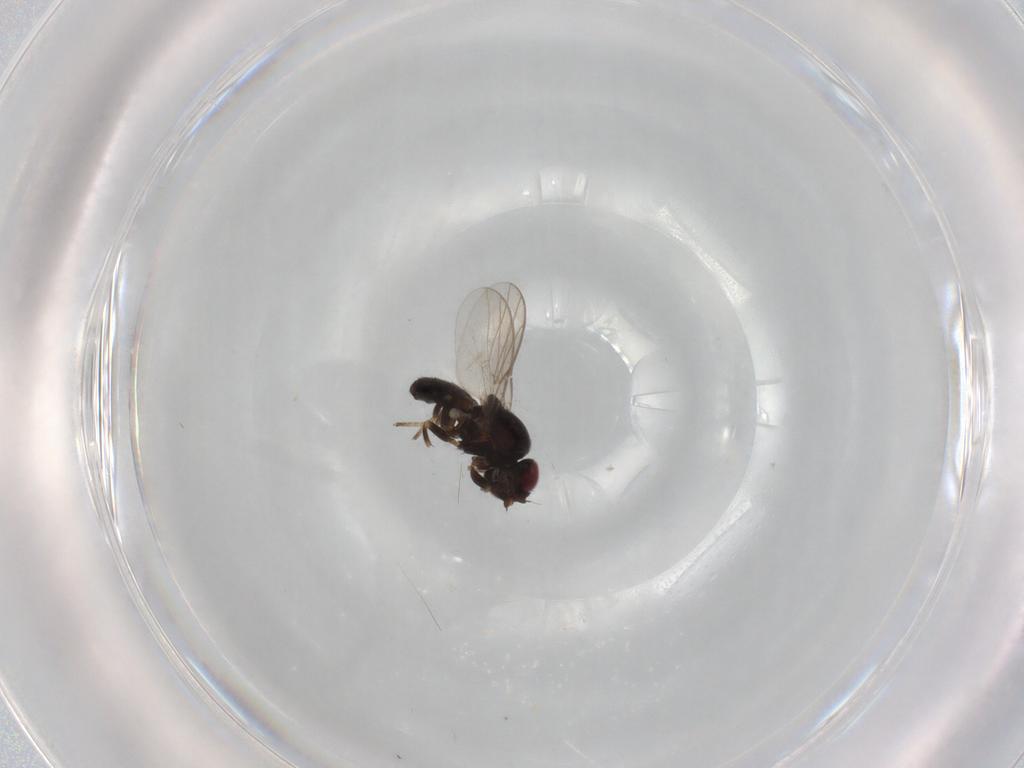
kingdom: Animalia
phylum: Arthropoda
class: Insecta
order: Diptera
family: Chloropidae
